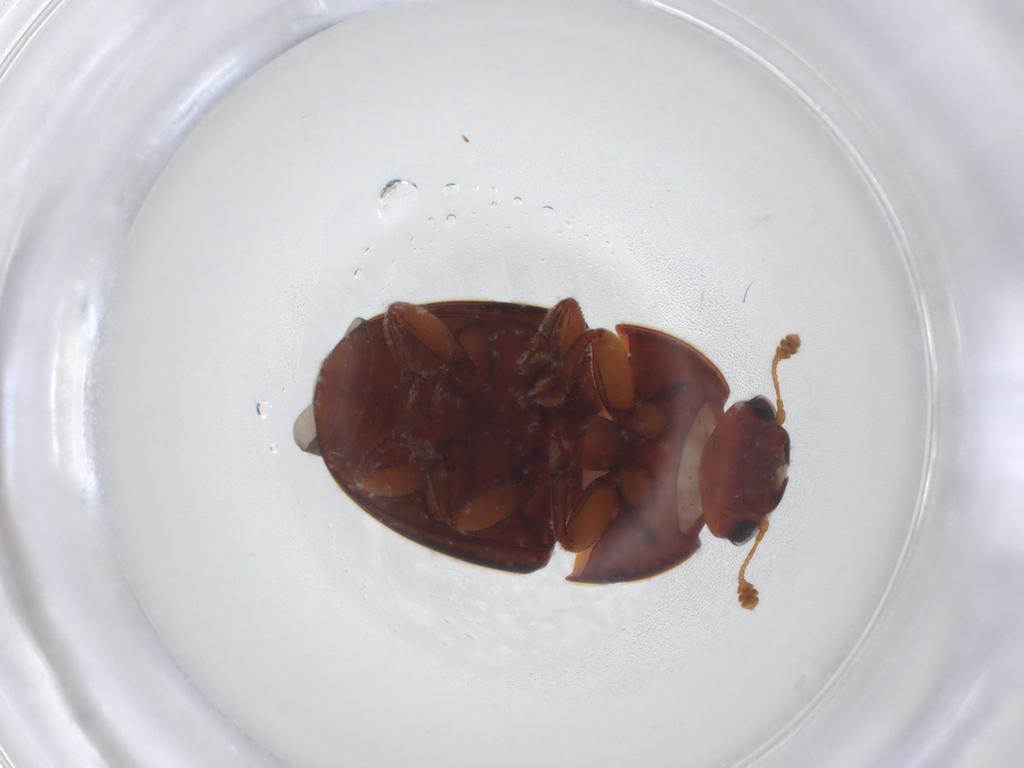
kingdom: Animalia
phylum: Arthropoda
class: Insecta
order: Coleoptera
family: Nitidulidae
